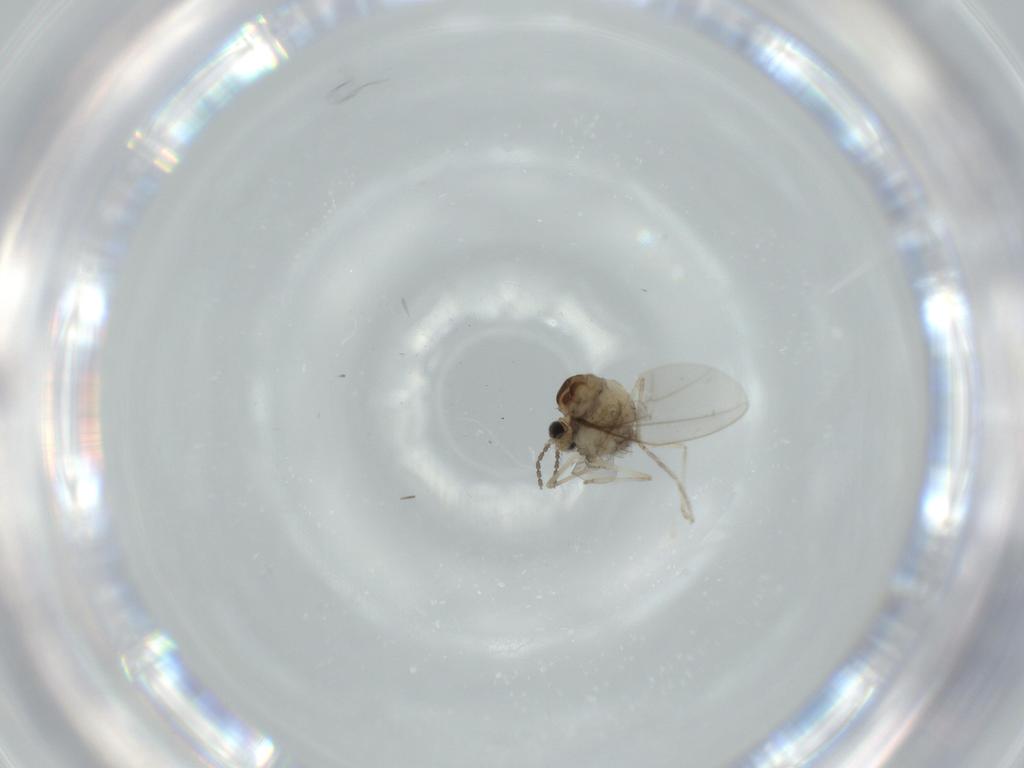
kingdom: Animalia
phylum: Arthropoda
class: Insecta
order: Diptera
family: Cecidomyiidae
